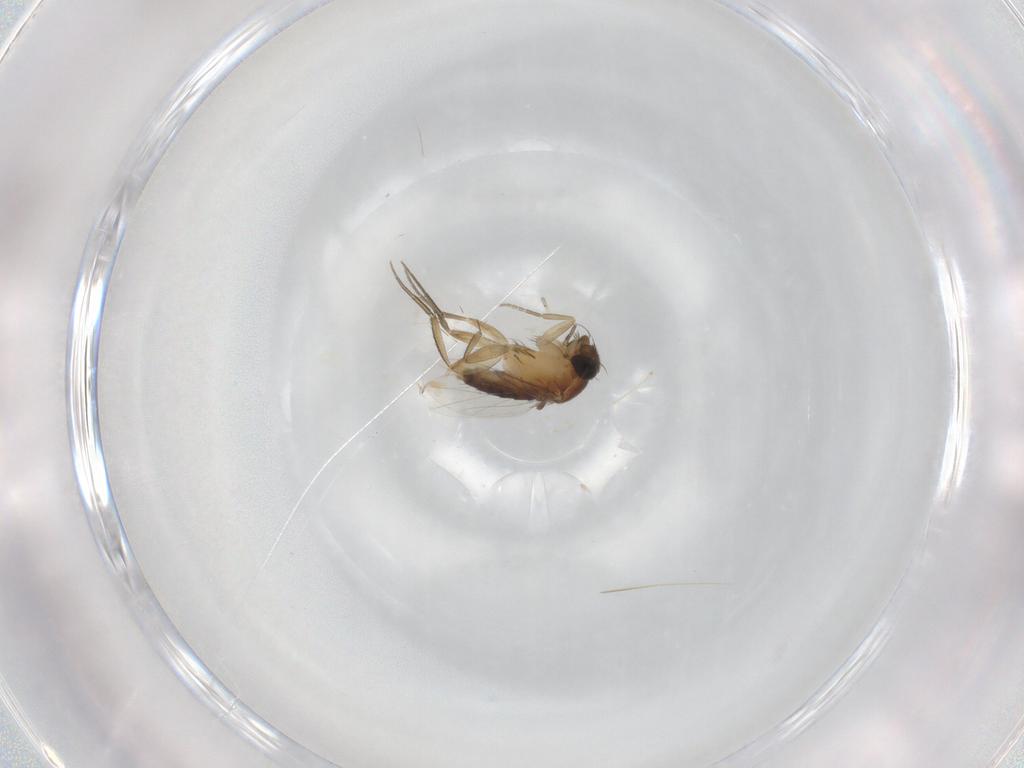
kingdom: Animalia
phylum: Arthropoda
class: Insecta
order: Diptera
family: Phoridae
